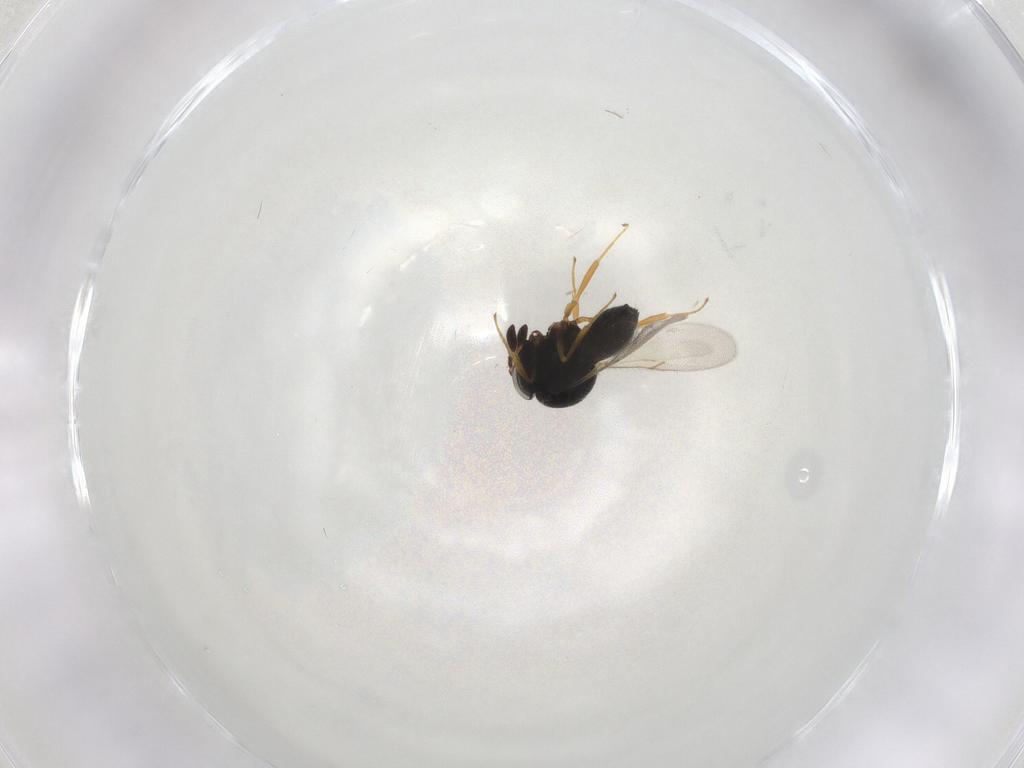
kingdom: Animalia
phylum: Arthropoda
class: Insecta
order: Hymenoptera
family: Scelionidae
